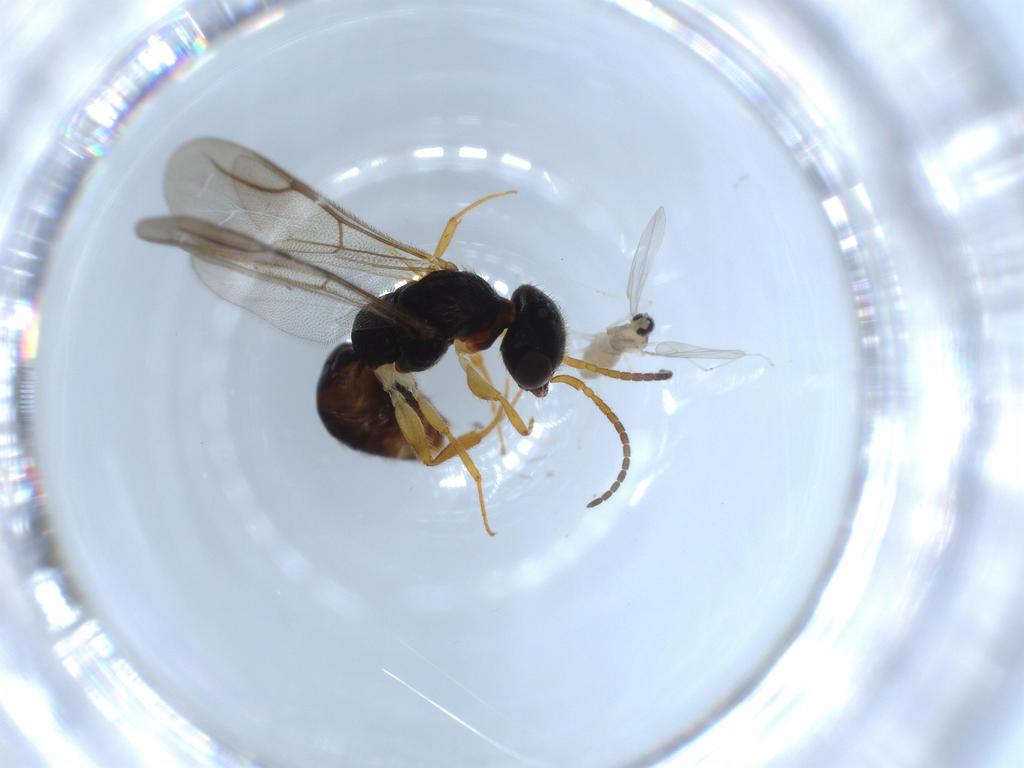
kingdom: Animalia
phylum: Arthropoda
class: Insecta
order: Hymenoptera
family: Bethylidae
